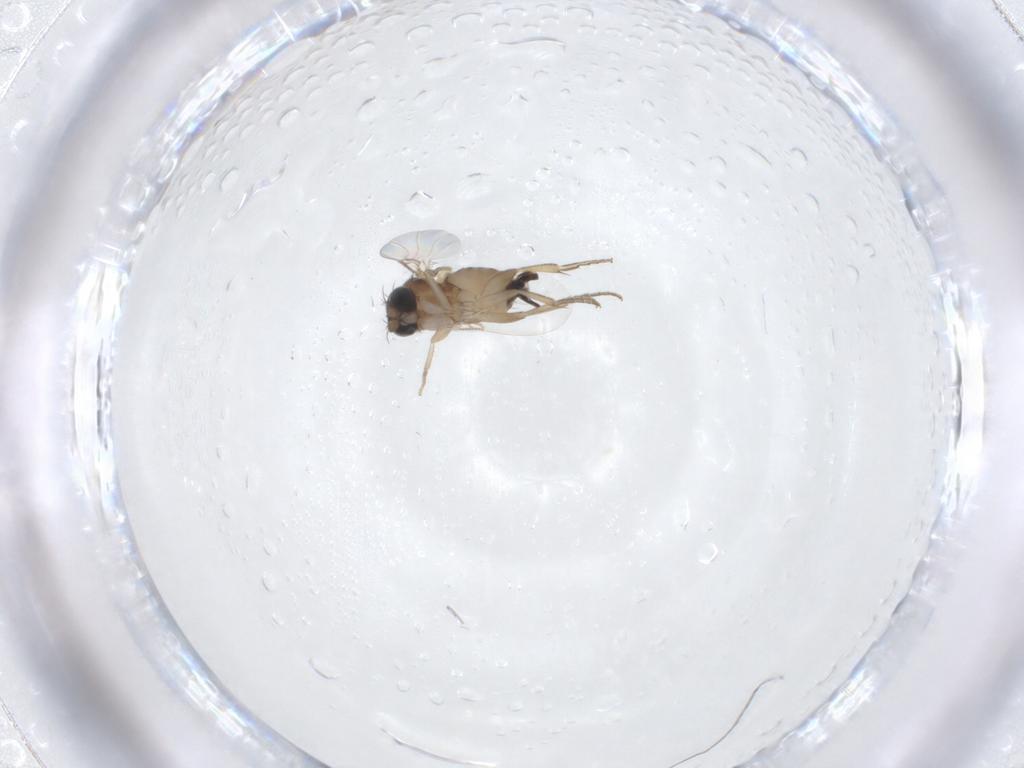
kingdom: Animalia
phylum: Arthropoda
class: Insecta
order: Diptera
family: Phoridae
